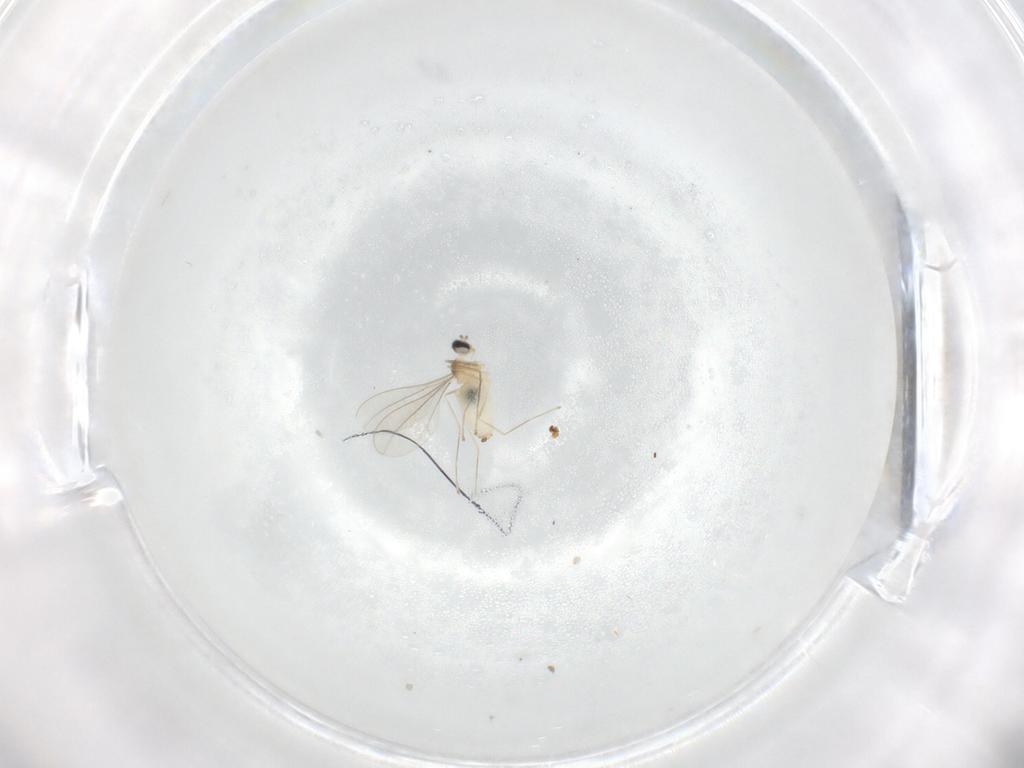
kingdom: Animalia
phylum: Arthropoda
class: Insecta
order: Diptera
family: Cecidomyiidae
